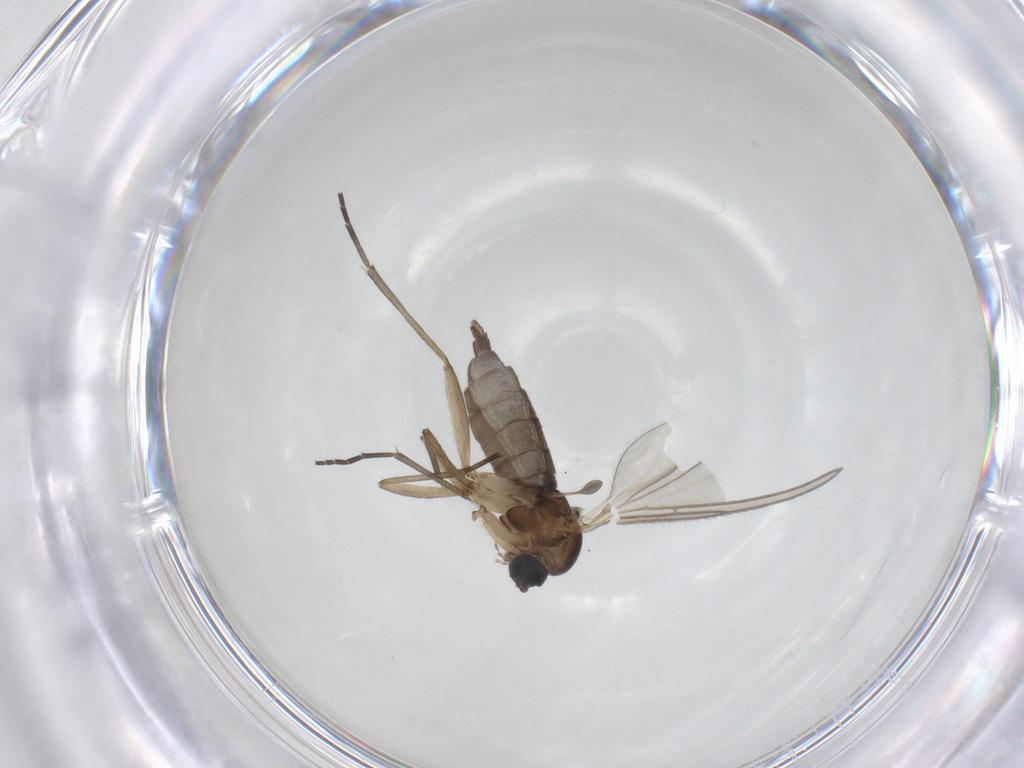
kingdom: Animalia
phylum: Arthropoda
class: Insecta
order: Diptera
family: Sciaridae
